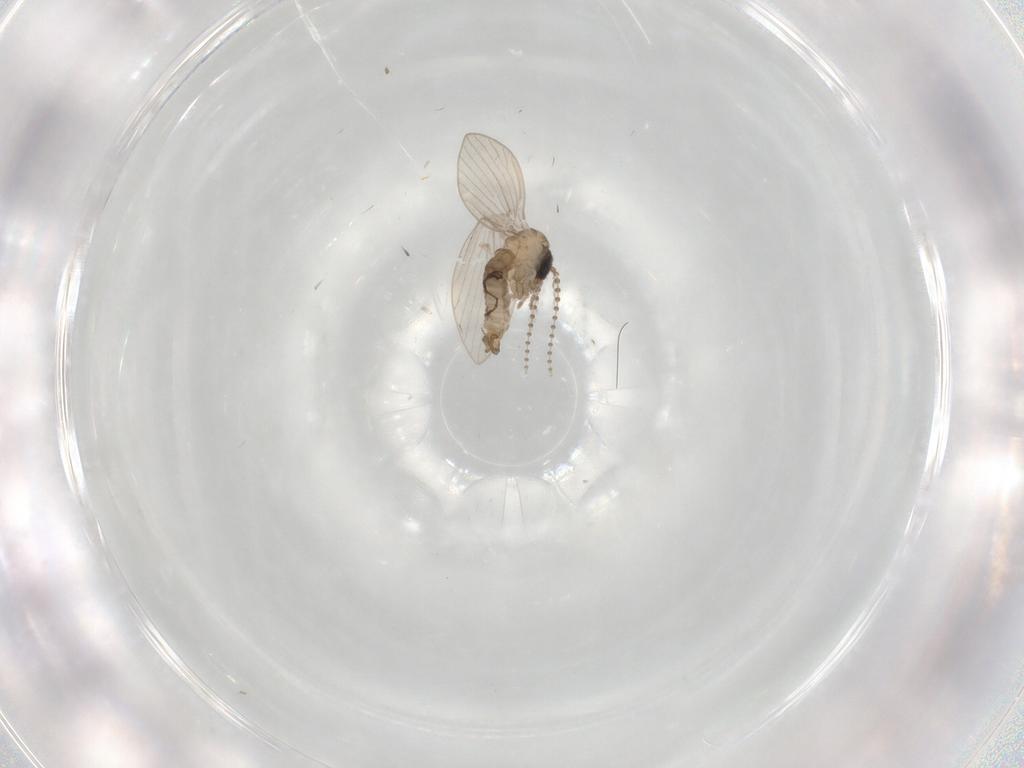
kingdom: Animalia
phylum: Arthropoda
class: Insecta
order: Diptera
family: Psychodidae
